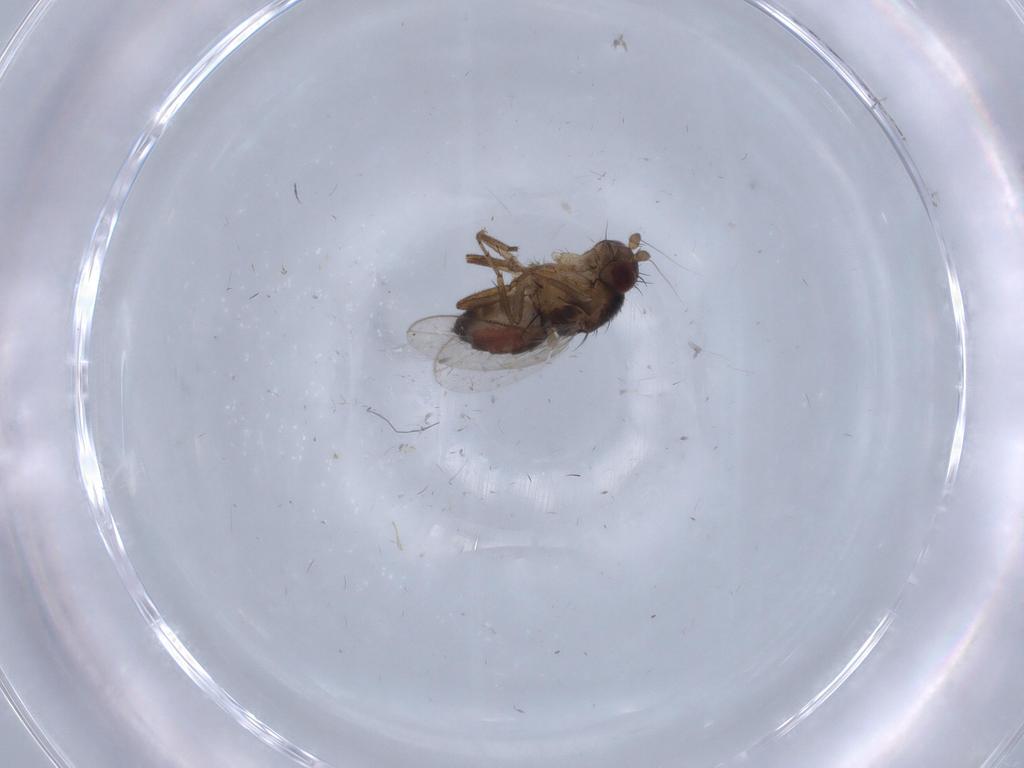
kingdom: Animalia
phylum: Arthropoda
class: Insecta
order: Diptera
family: Sphaeroceridae
